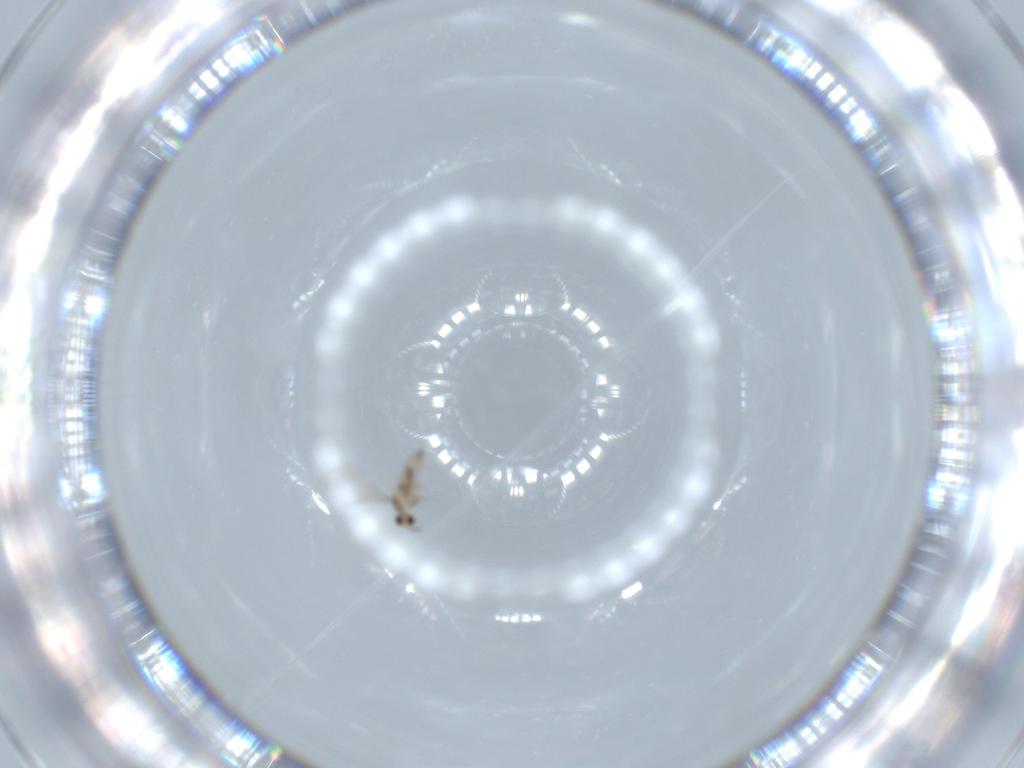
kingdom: Animalia
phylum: Arthropoda
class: Insecta
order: Diptera
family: Cecidomyiidae
